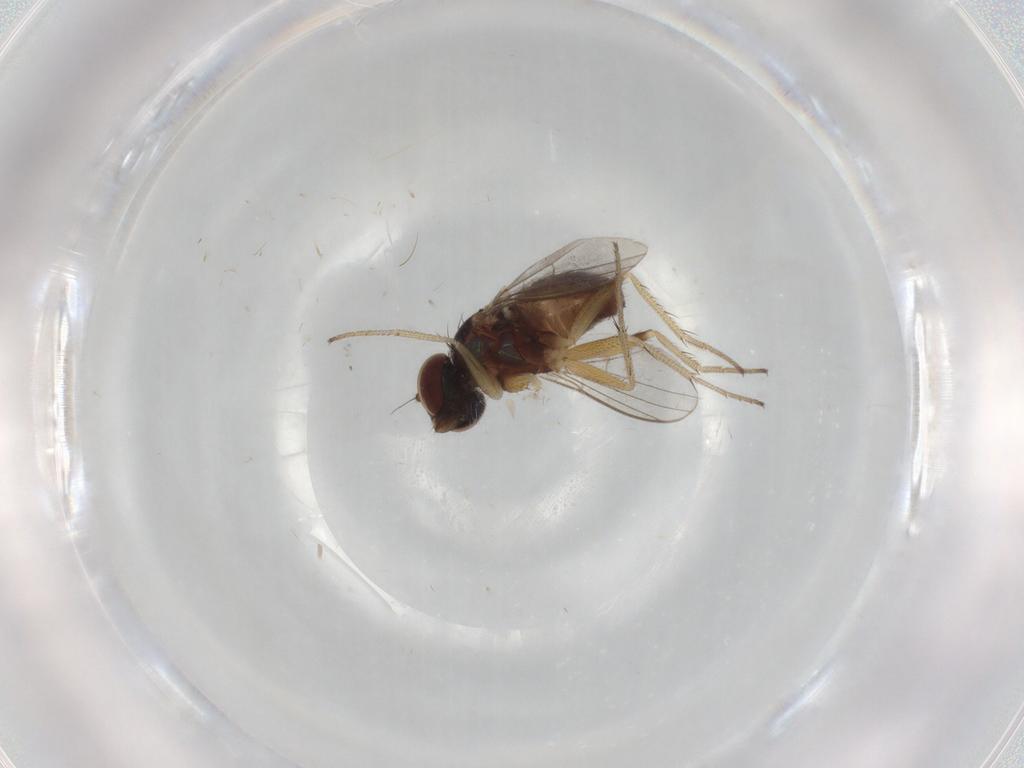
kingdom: Animalia
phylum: Arthropoda
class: Insecta
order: Diptera
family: Psychodidae
